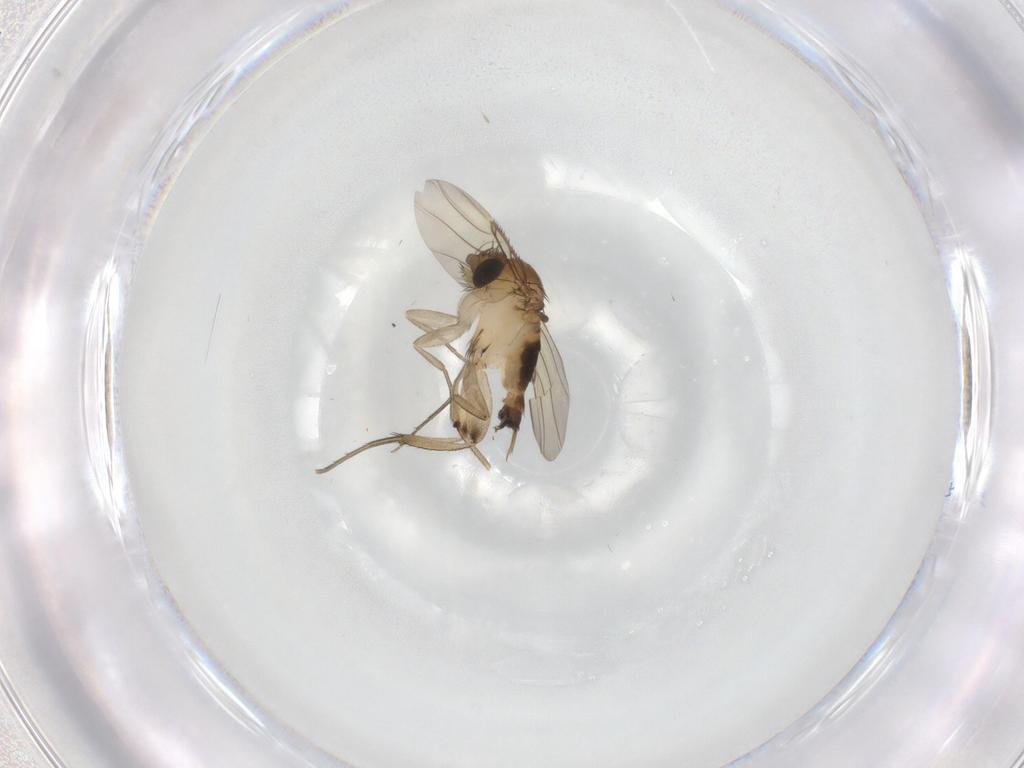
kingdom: Animalia
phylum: Arthropoda
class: Insecta
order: Diptera
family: Phoridae
